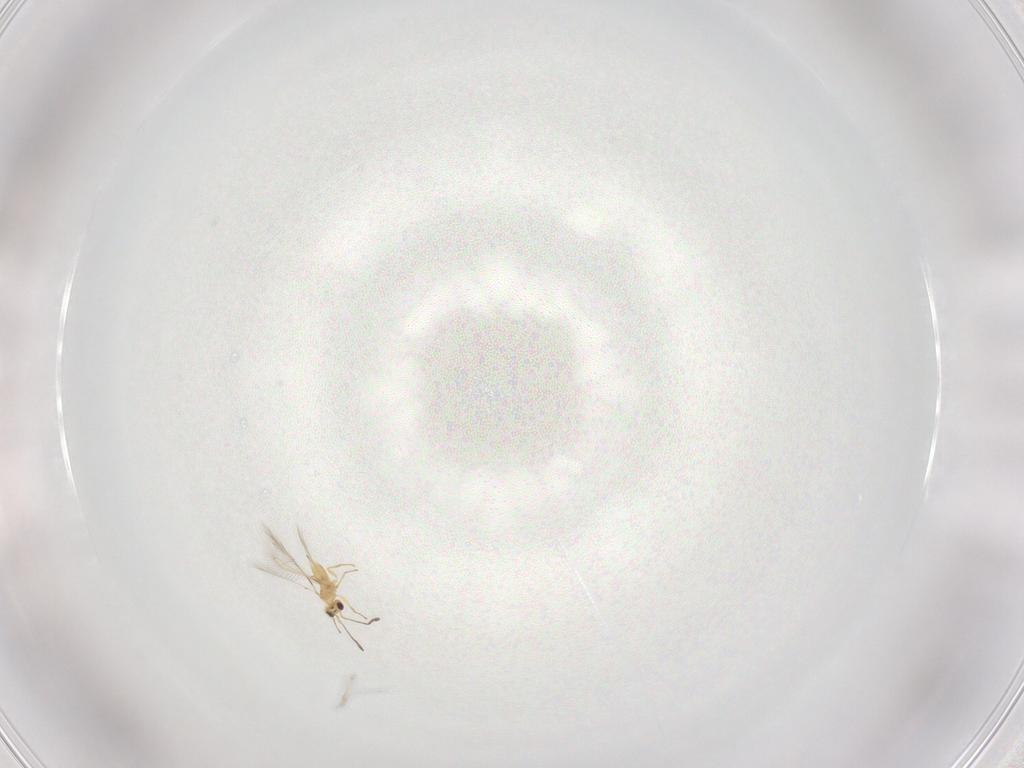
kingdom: Animalia
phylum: Arthropoda
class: Insecta
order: Hymenoptera
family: Mymaridae
